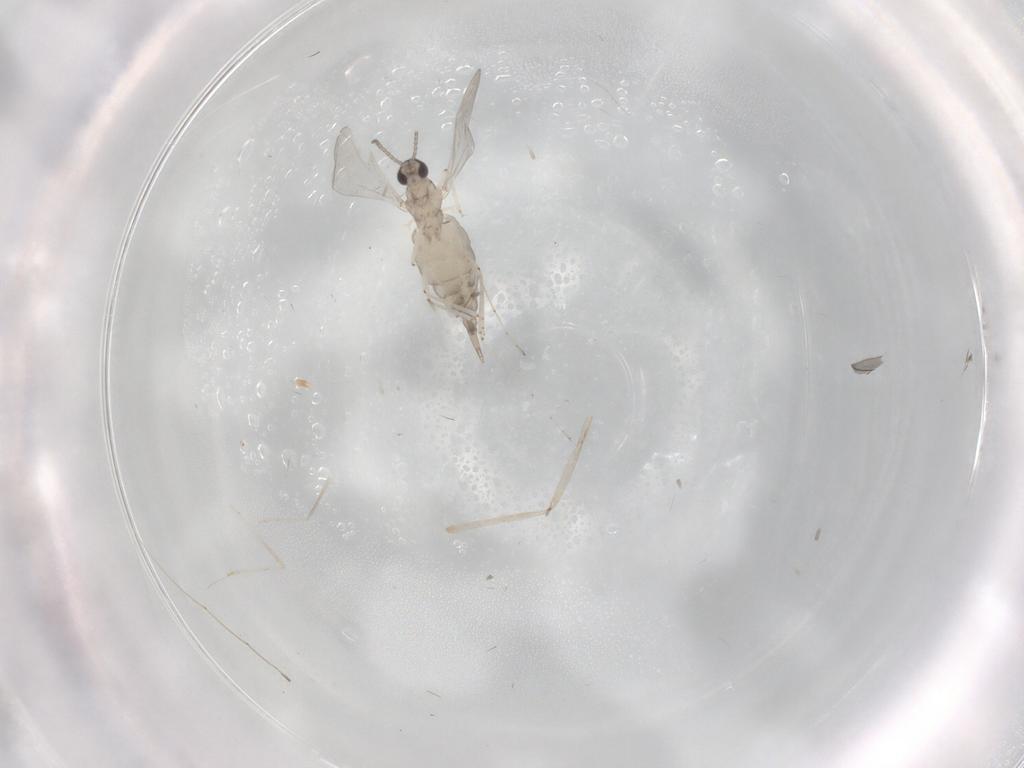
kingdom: Animalia
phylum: Arthropoda
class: Insecta
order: Diptera
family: Cecidomyiidae
